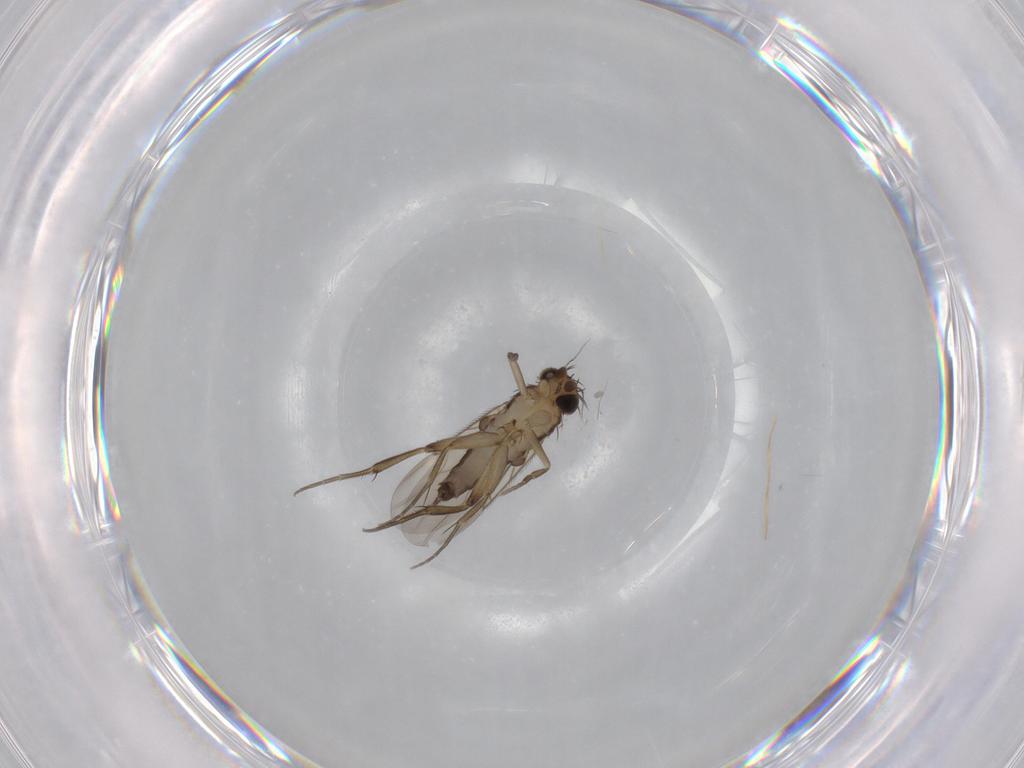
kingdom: Animalia
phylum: Arthropoda
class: Insecta
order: Diptera
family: Phoridae
